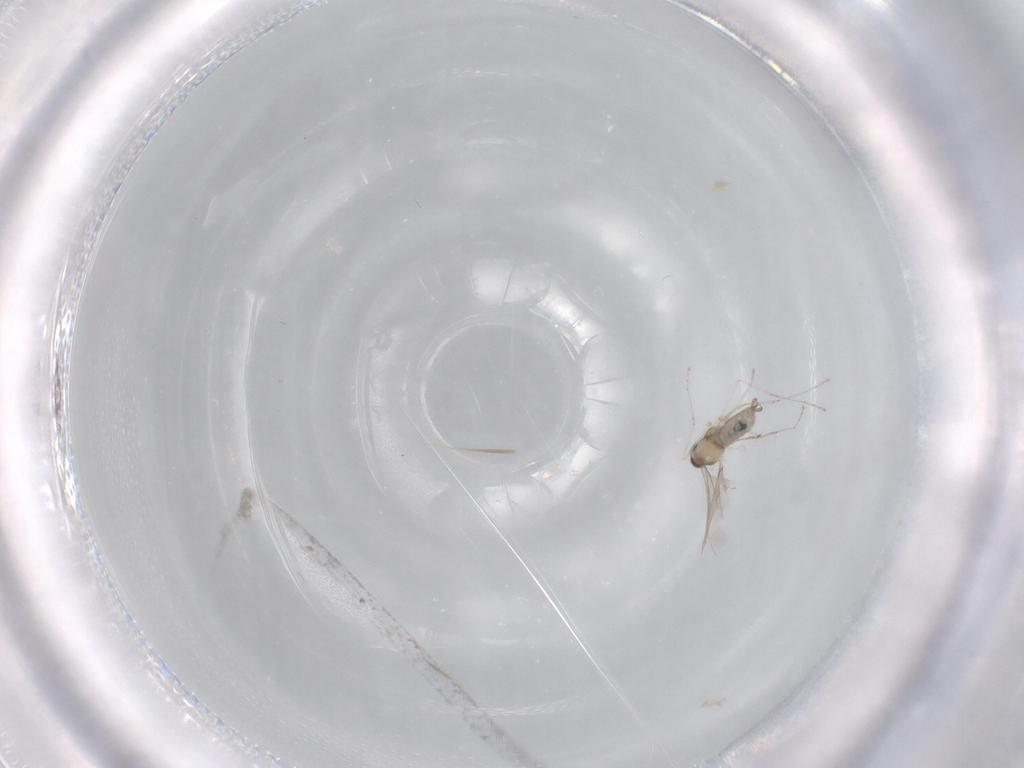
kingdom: Animalia
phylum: Arthropoda
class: Insecta
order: Diptera
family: Cecidomyiidae
